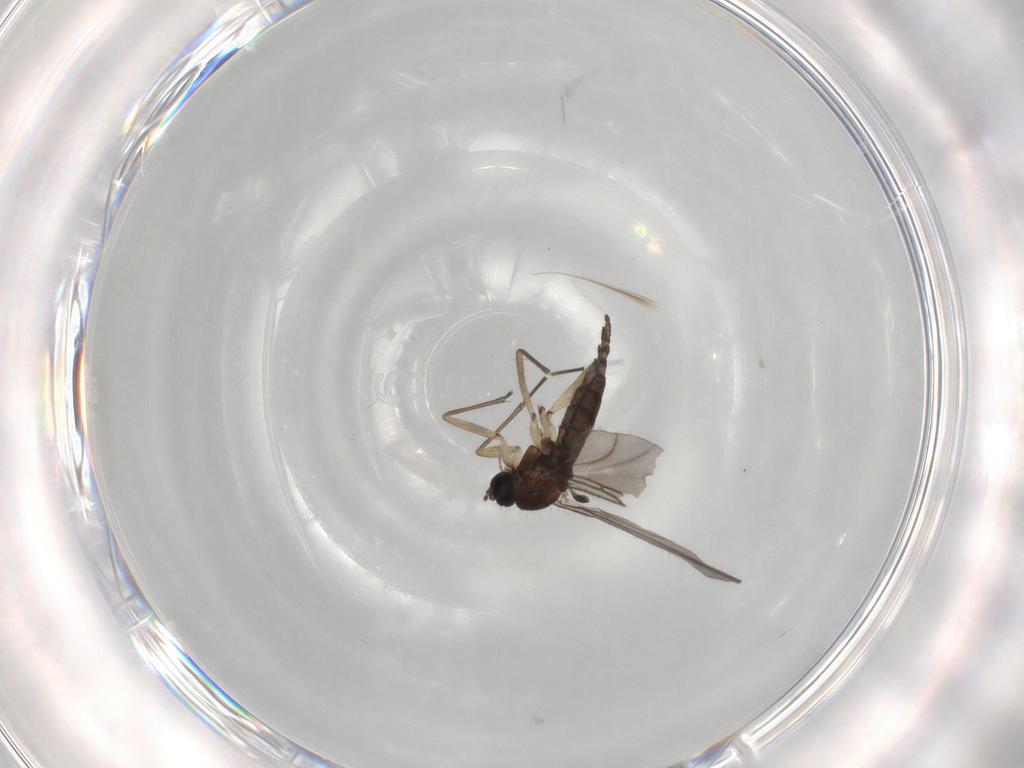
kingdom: Animalia
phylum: Arthropoda
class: Insecta
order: Diptera
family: Sciaridae
